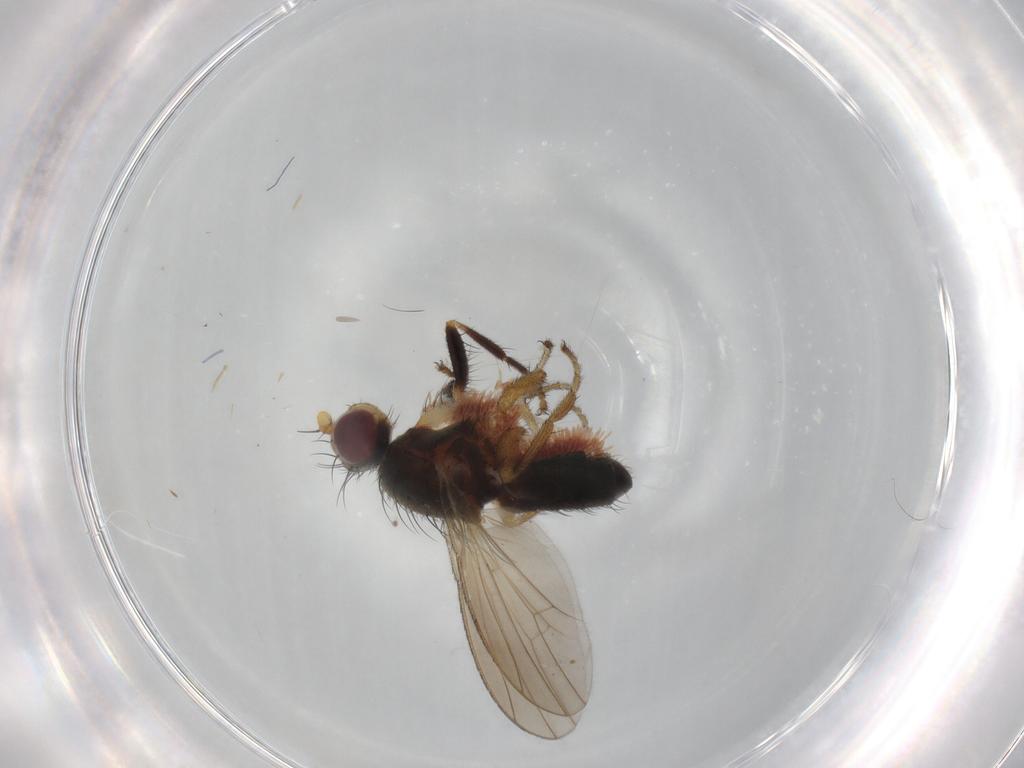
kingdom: Animalia
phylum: Arthropoda
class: Insecta
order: Diptera
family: Heleomyzidae
